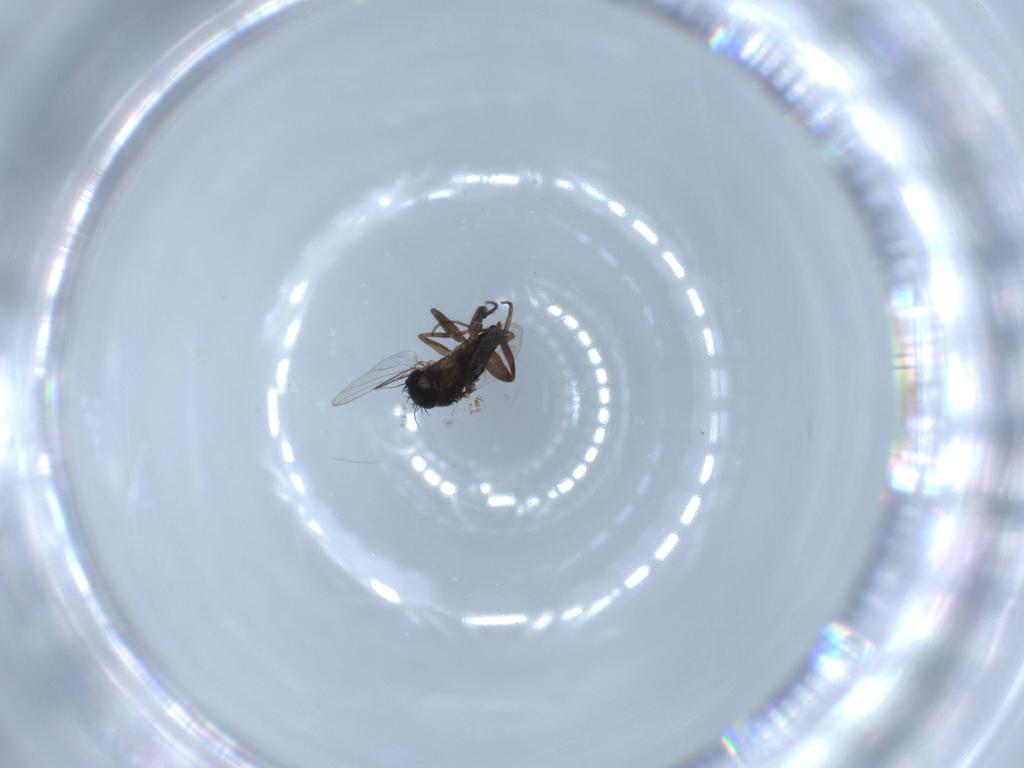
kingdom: Animalia
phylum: Arthropoda
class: Insecta
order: Diptera
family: Phoridae
